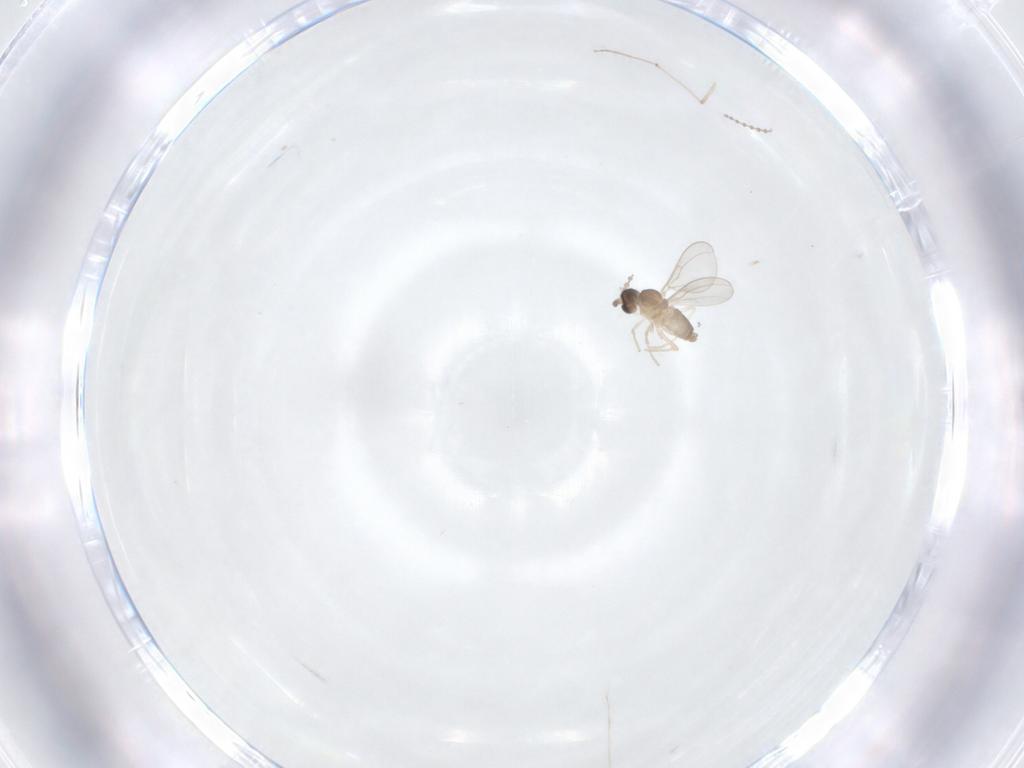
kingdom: Animalia
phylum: Arthropoda
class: Insecta
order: Diptera
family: Cecidomyiidae
